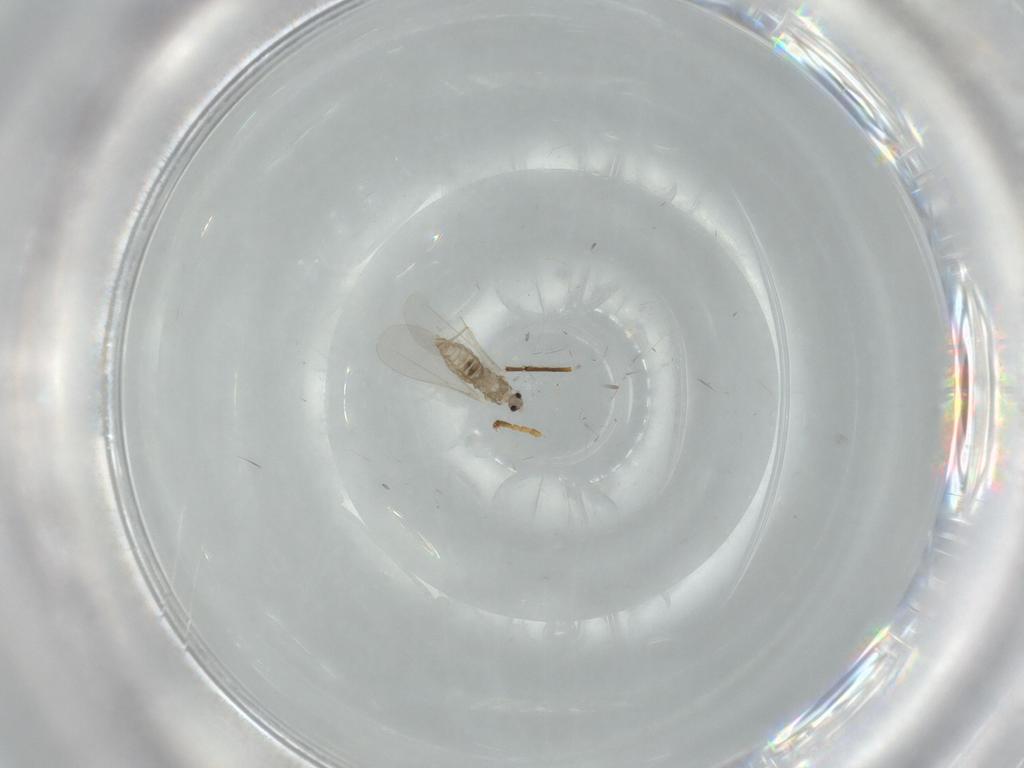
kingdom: Animalia
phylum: Arthropoda
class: Insecta
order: Diptera
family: Cecidomyiidae
